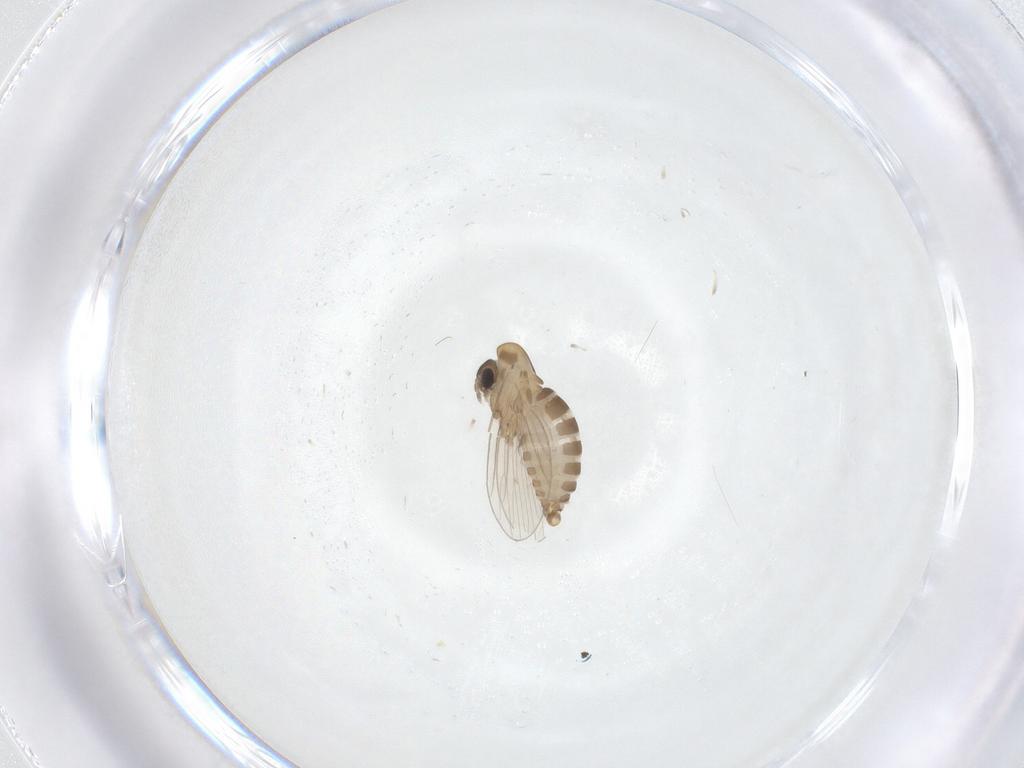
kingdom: Animalia
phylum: Arthropoda
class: Insecta
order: Diptera
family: Psychodidae
